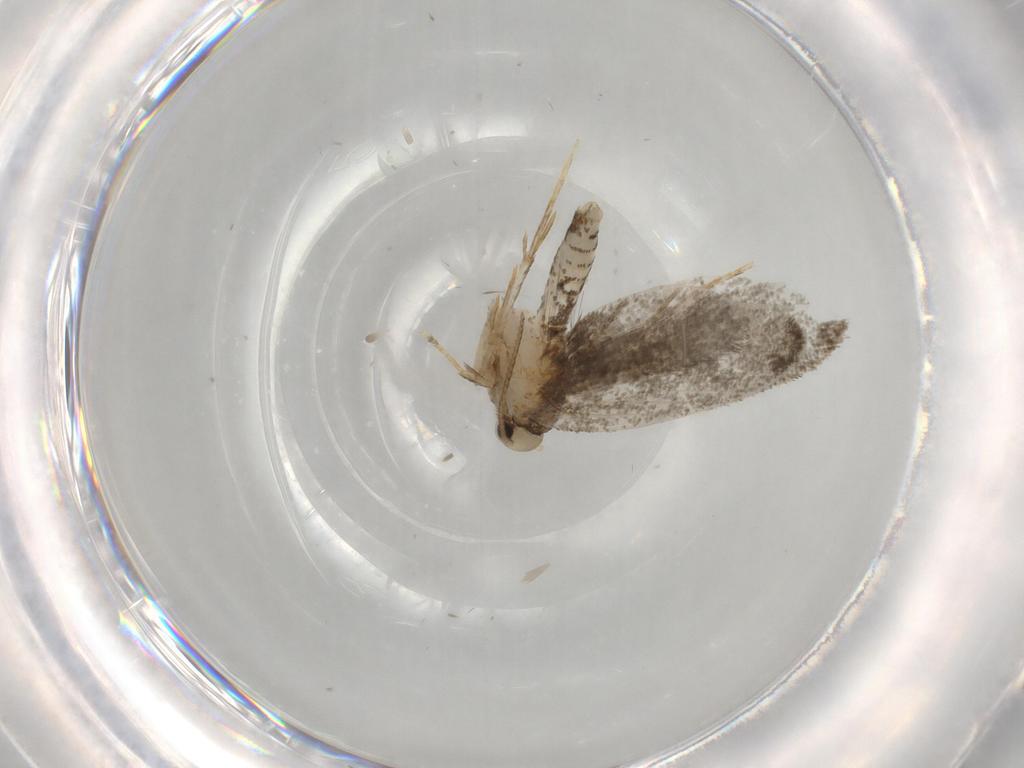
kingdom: Animalia
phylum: Arthropoda
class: Insecta
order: Lepidoptera
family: Psychidae
